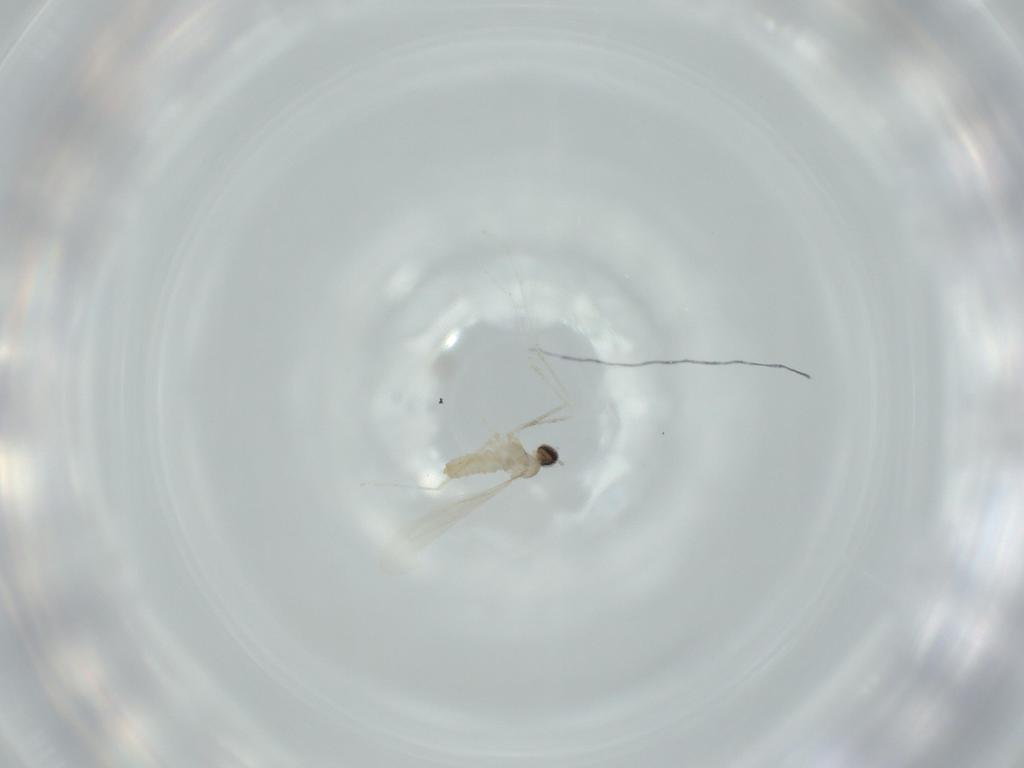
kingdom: Animalia
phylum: Arthropoda
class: Insecta
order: Diptera
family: Cecidomyiidae
